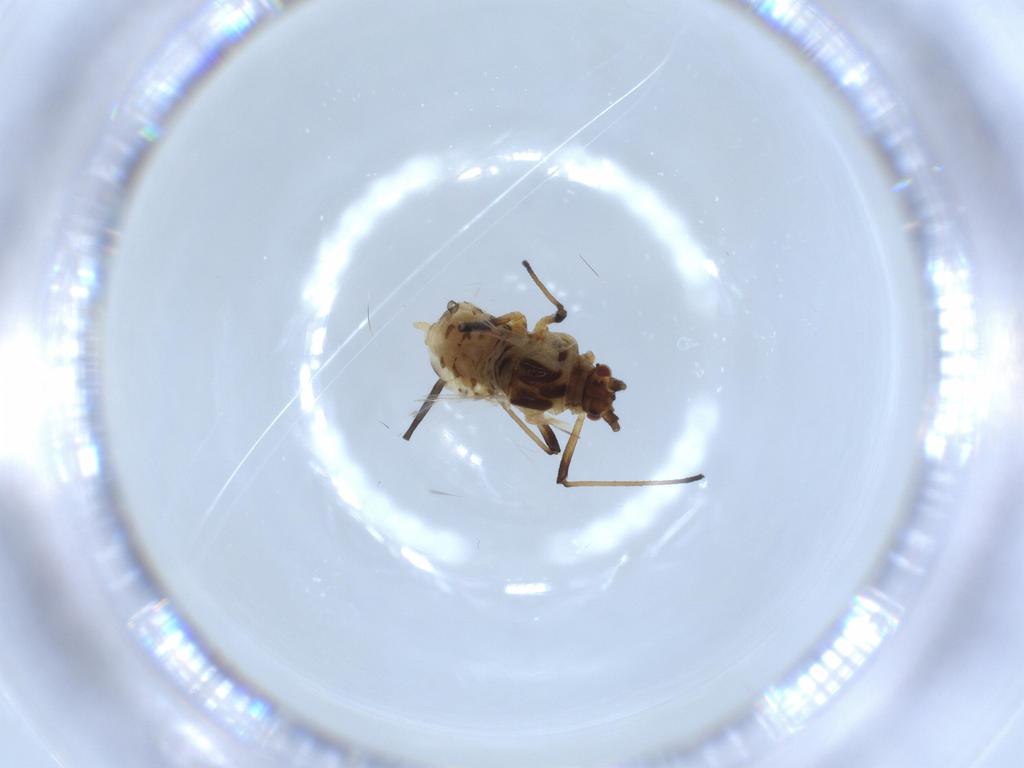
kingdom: Animalia
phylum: Arthropoda
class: Insecta
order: Hemiptera
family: Aphididae
